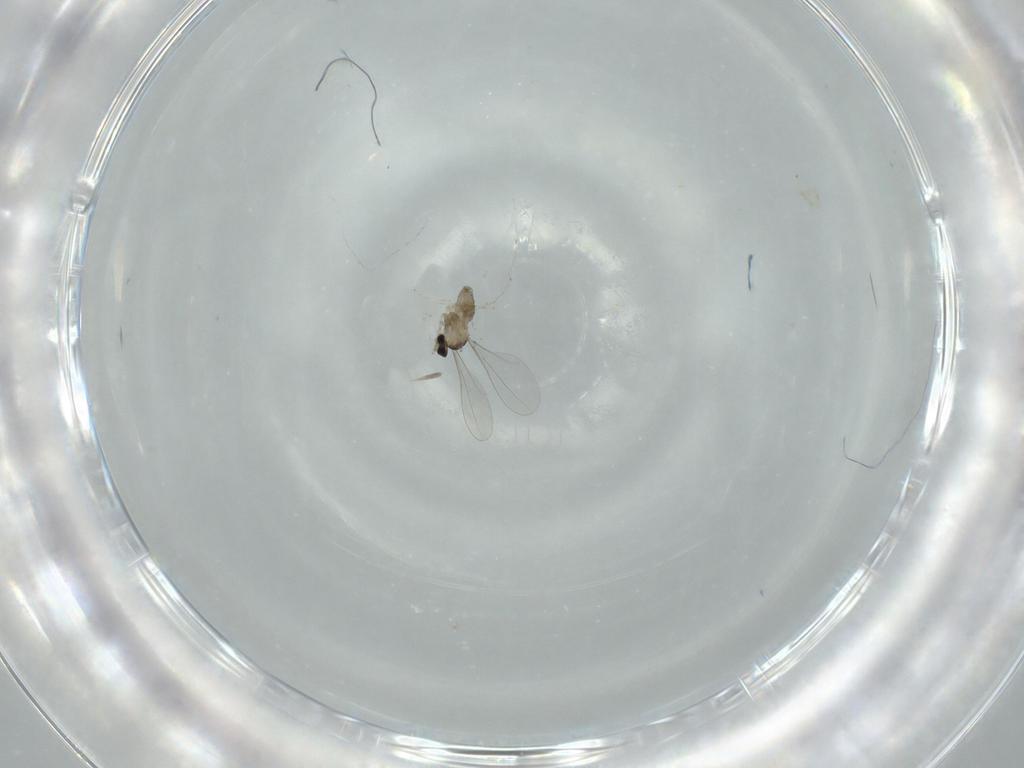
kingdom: Animalia
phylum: Arthropoda
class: Insecta
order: Diptera
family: Cecidomyiidae
